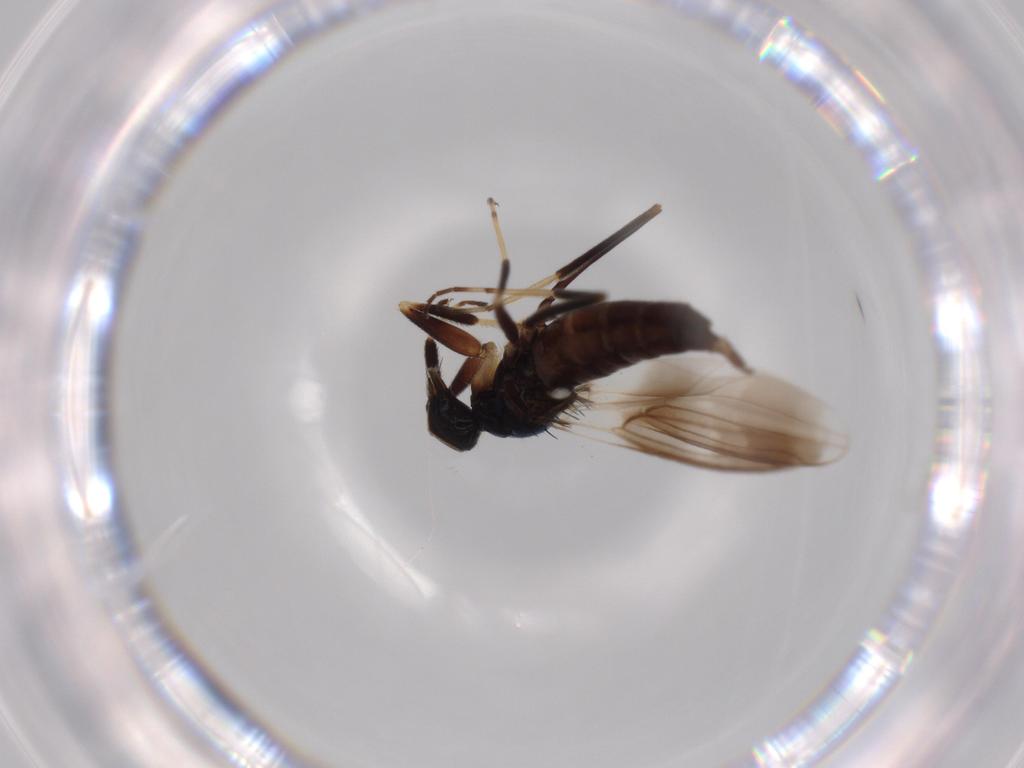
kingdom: Animalia
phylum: Arthropoda
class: Insecta
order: Diptera
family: Hybotidae
